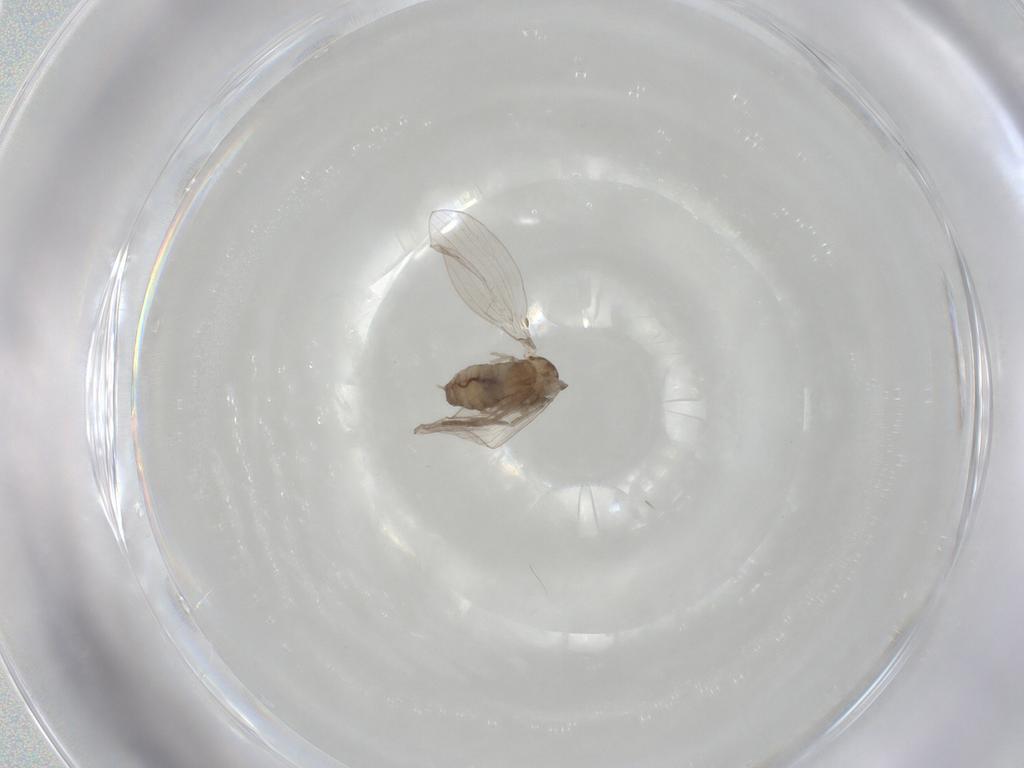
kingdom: Animalia
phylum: Arthropoda
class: Insecta
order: Diptera
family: Psychodidae
